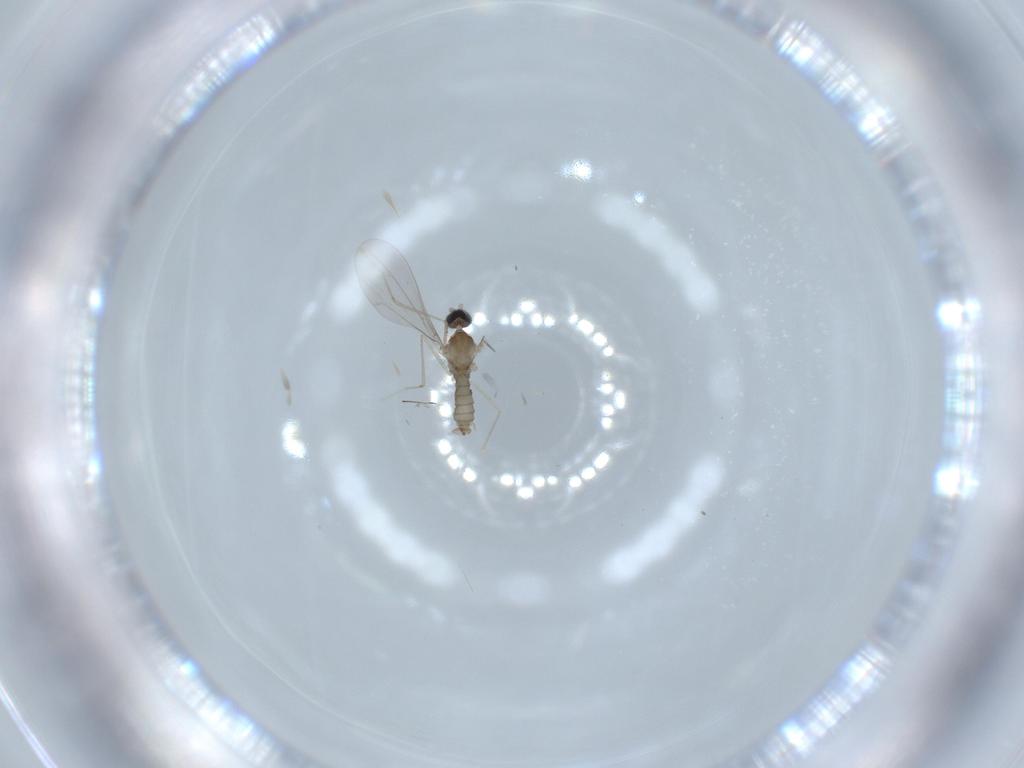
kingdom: Animalia
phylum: Arthropoda
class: Insecta
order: Diptera
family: Cecidomyiidae
